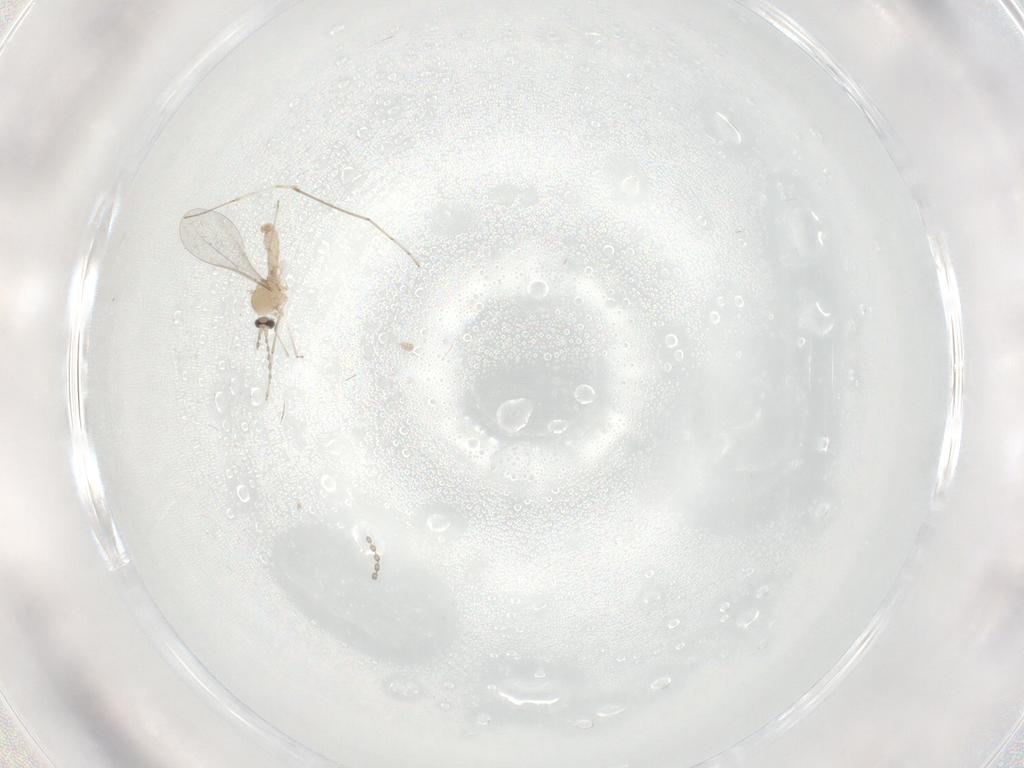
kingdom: Animalia
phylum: Arthropoda
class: Insecta
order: Diptera
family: Cecidomyiidae
